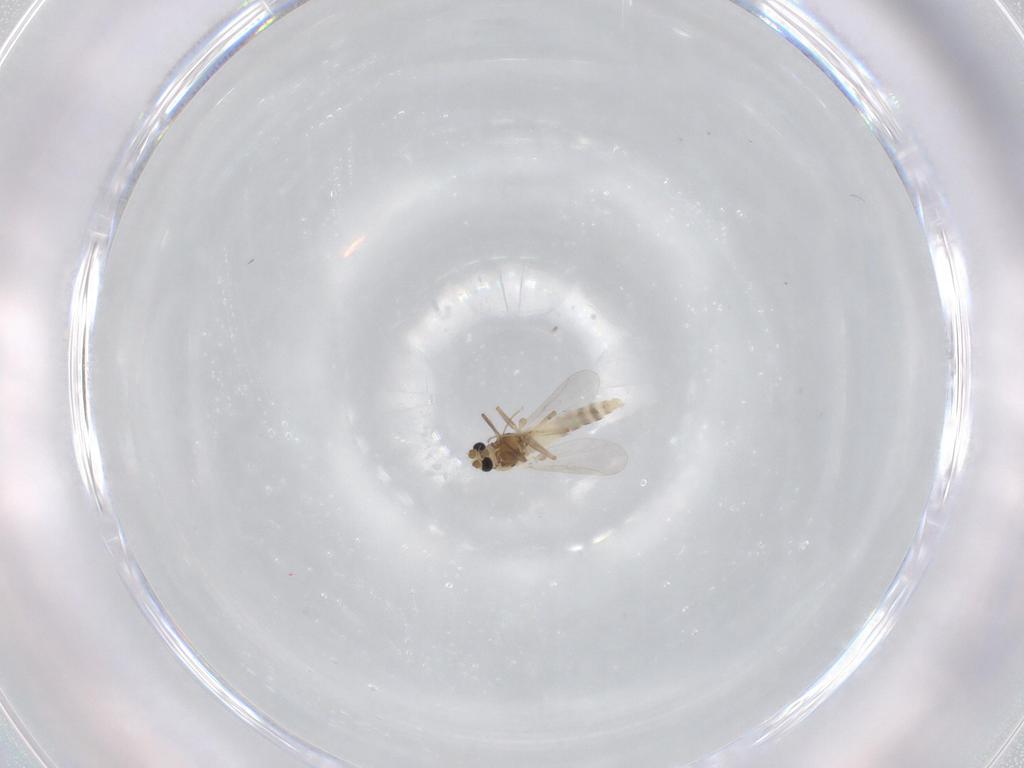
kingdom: Animalia
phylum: Arthropoda
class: Insecta
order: Diptera
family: Chironomidae
